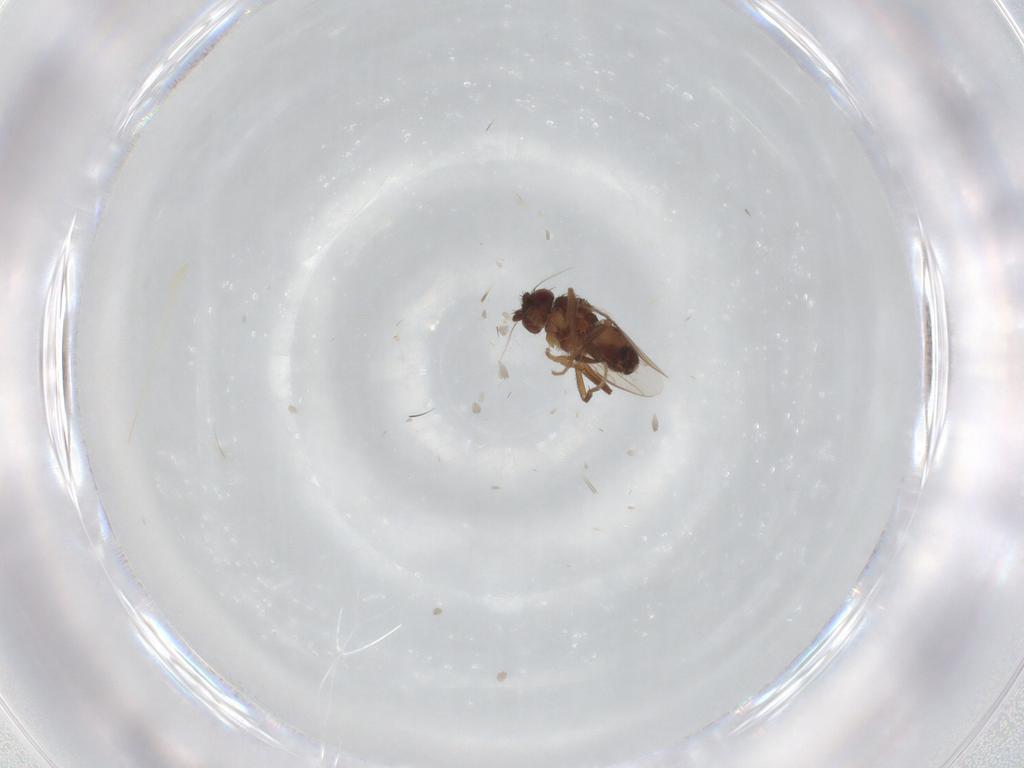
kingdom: Animalia
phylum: Arthropoda
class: Insecta
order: Diptera
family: Sphaeroceridae
